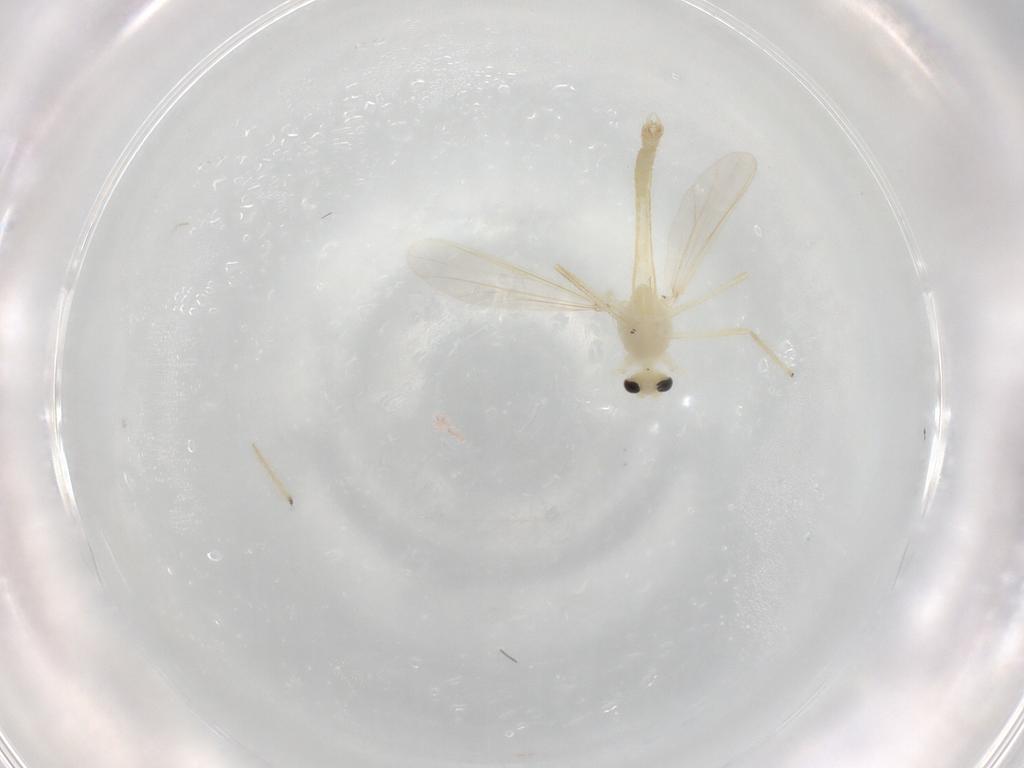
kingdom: Animalia
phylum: Arthropoda
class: Insecta
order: Diptera
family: Chironomidae
